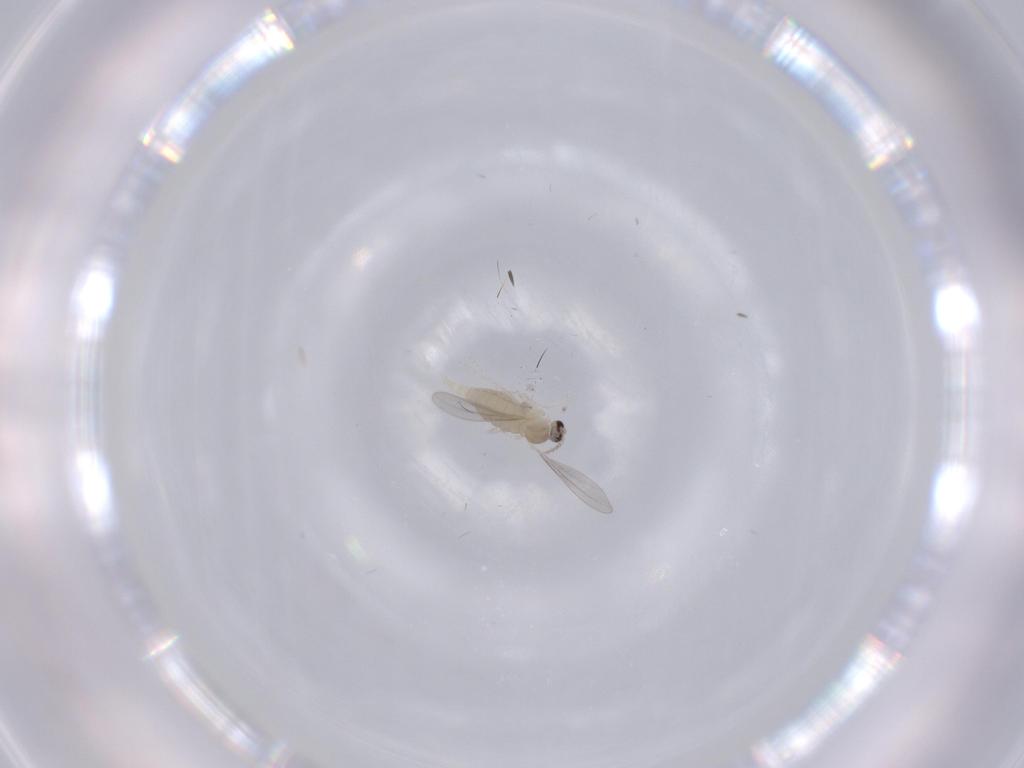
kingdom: Animalia
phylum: Arthropoda
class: Insecta
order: Diptera
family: Cecidomyiidae
